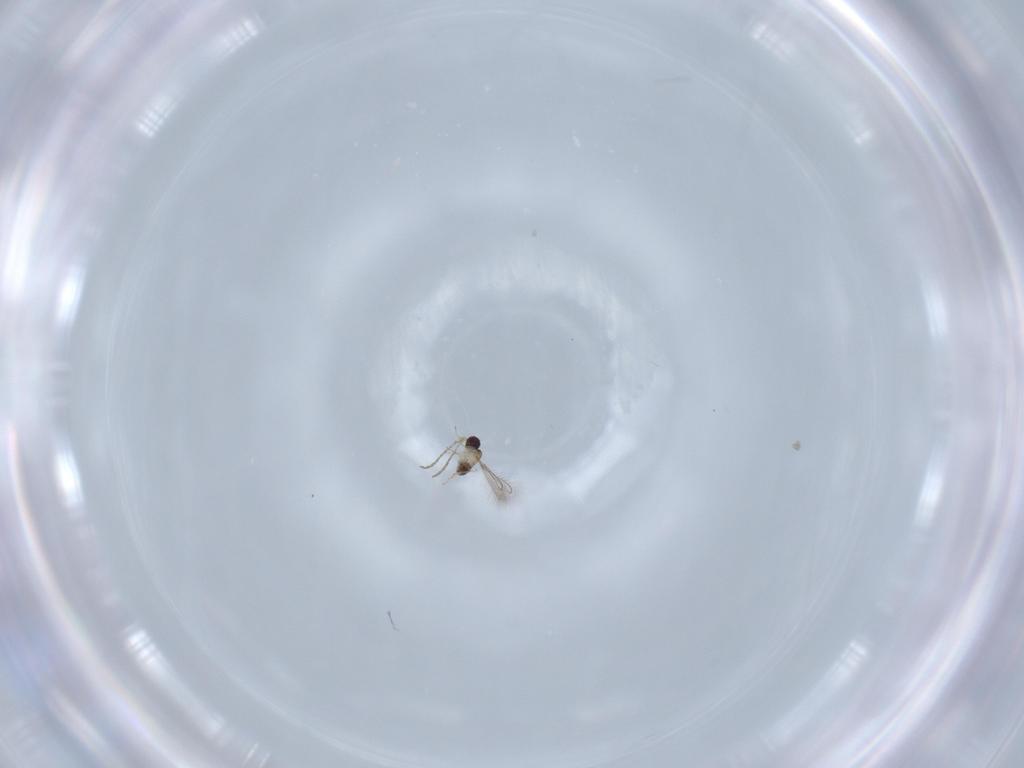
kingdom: Animalia
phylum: Arthropoda
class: Insecta
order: Hymenoptera
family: Mymaridae
